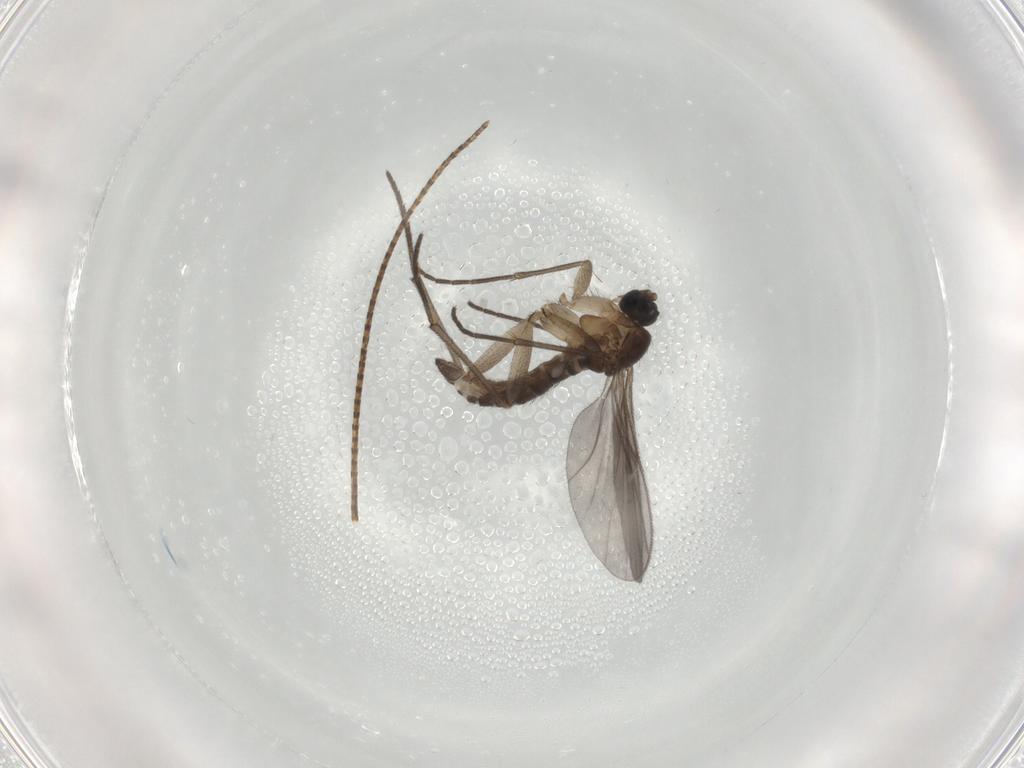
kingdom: Animalia
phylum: Arthropoda
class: Insecta
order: Diptera
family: Sciaridae
